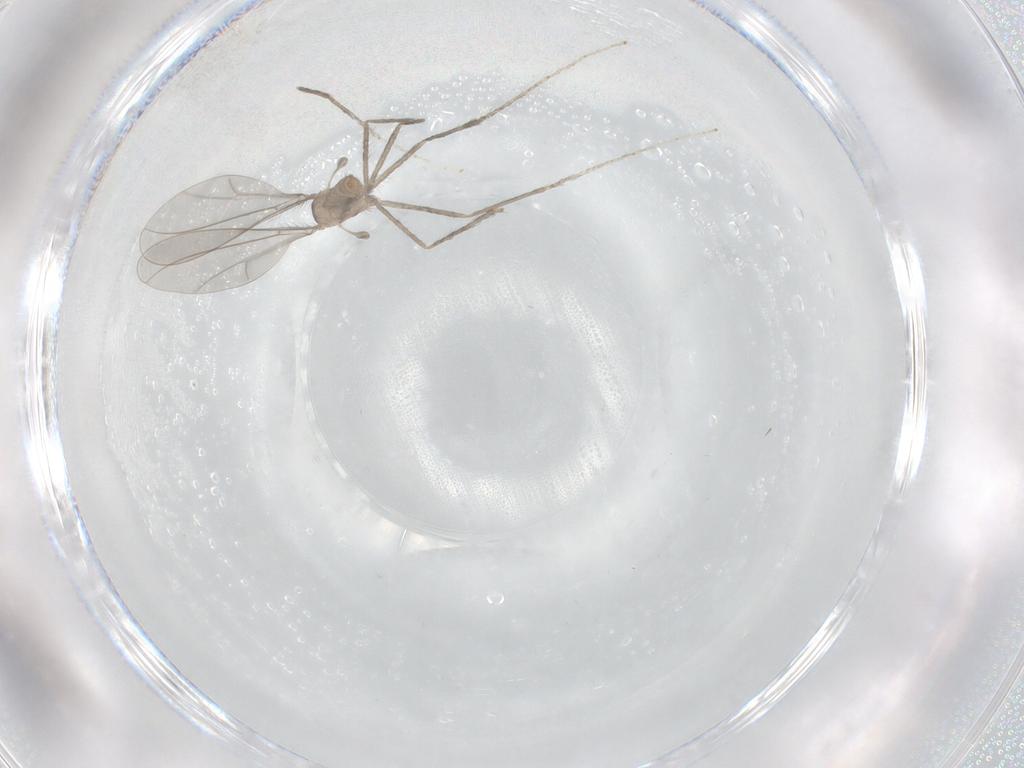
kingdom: Animalia
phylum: Arthropoda
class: Insecta
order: Diptera
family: Cecidomyiidae
